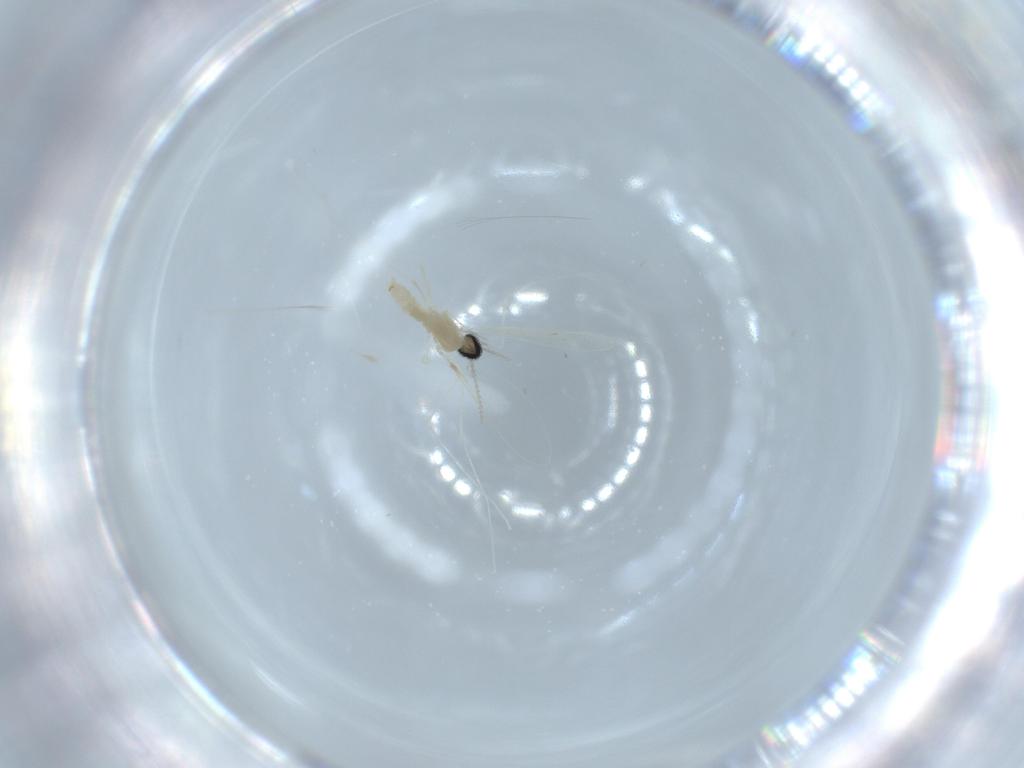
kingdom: Animalia
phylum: Arthropoda
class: Insecta
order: Diptera
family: Cecidomyiidae
